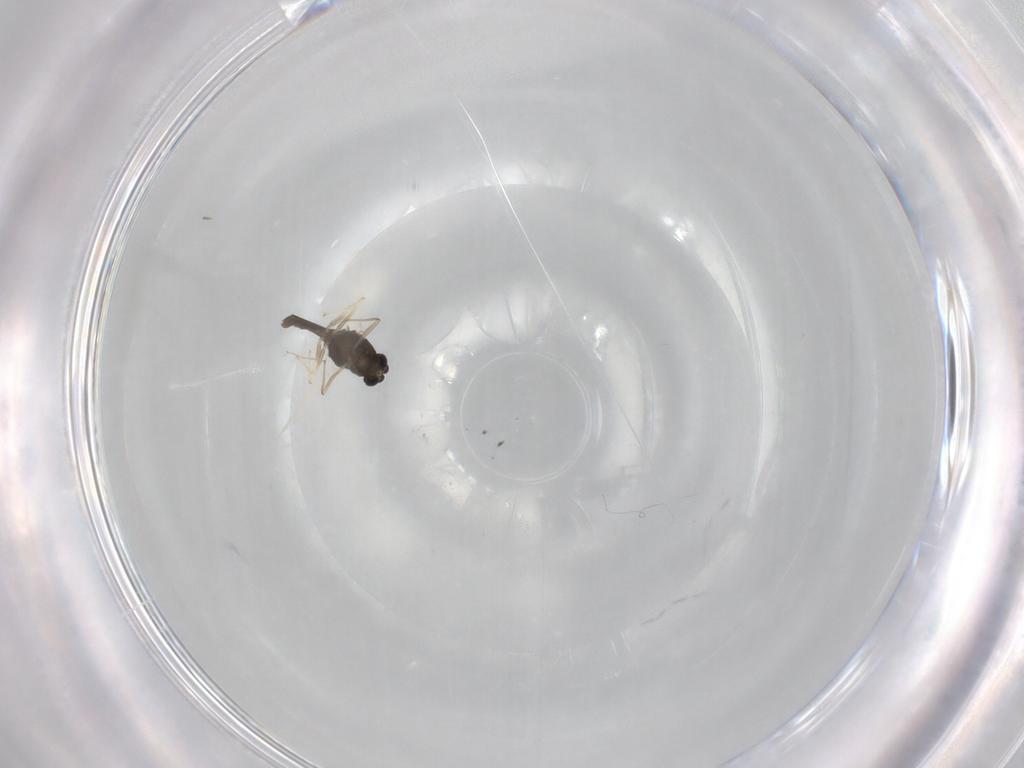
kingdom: Animalia
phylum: Arthropoda
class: Insecta
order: Diptera
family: Chironomidae
